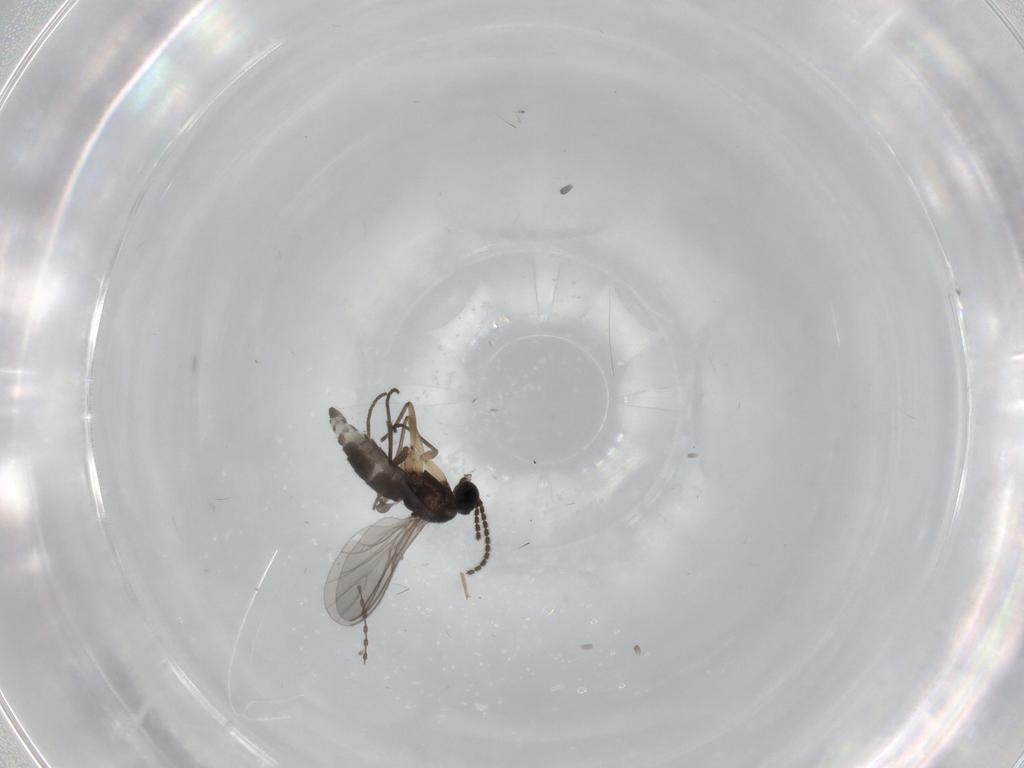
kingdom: Animalia
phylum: Arthropoda
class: Insecta
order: Diptera
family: Sciaridae
